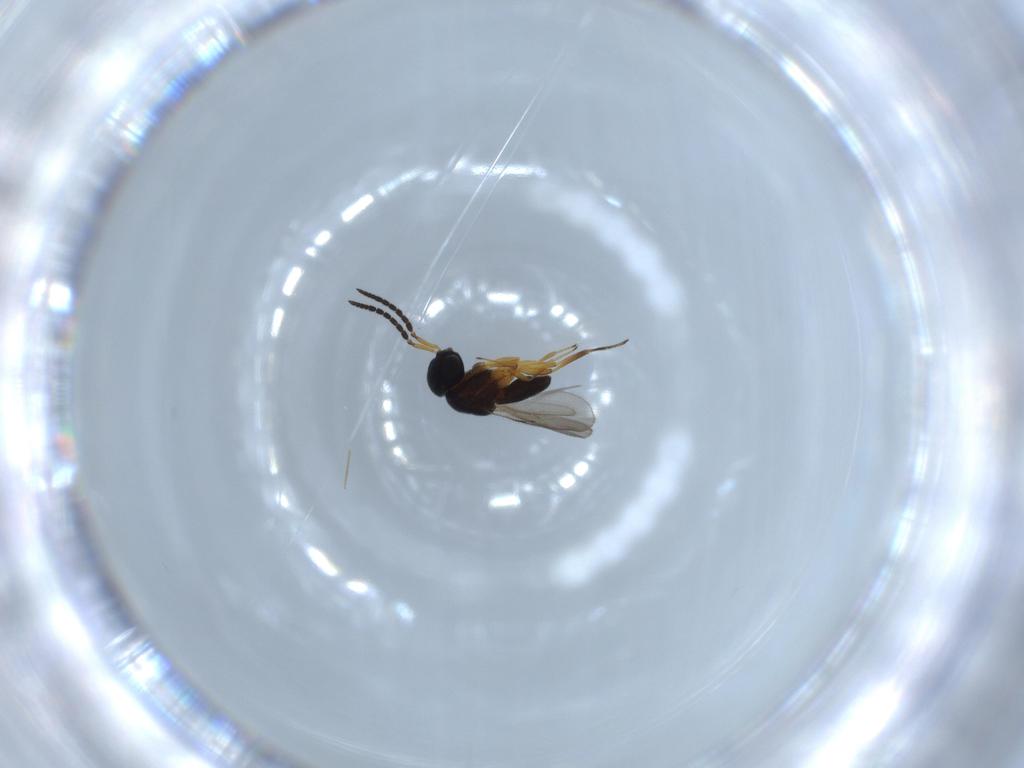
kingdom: Animalia
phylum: Arthropoda
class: Insecta
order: Hymenoptera
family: Scelionidae
